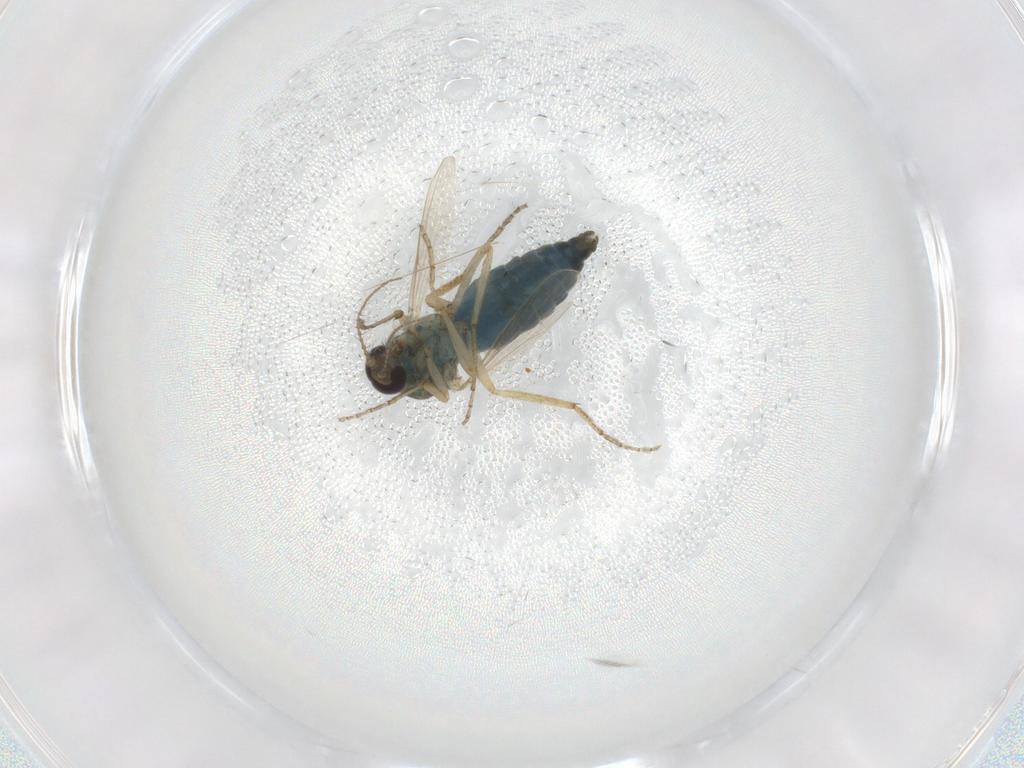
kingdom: Animalia
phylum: Arthropoda
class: Insecta
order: Diptera
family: Ceratopogonidae
